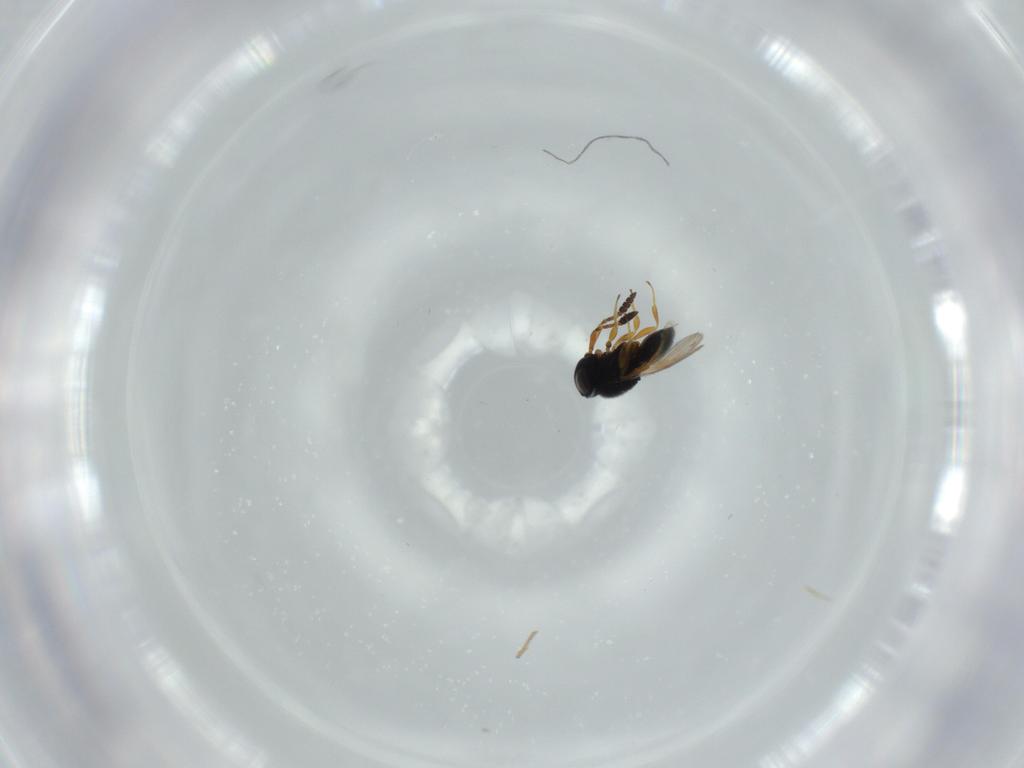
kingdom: Animalia
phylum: Arthropoda
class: Insecta
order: Hymenoptera
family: Scelionidae
